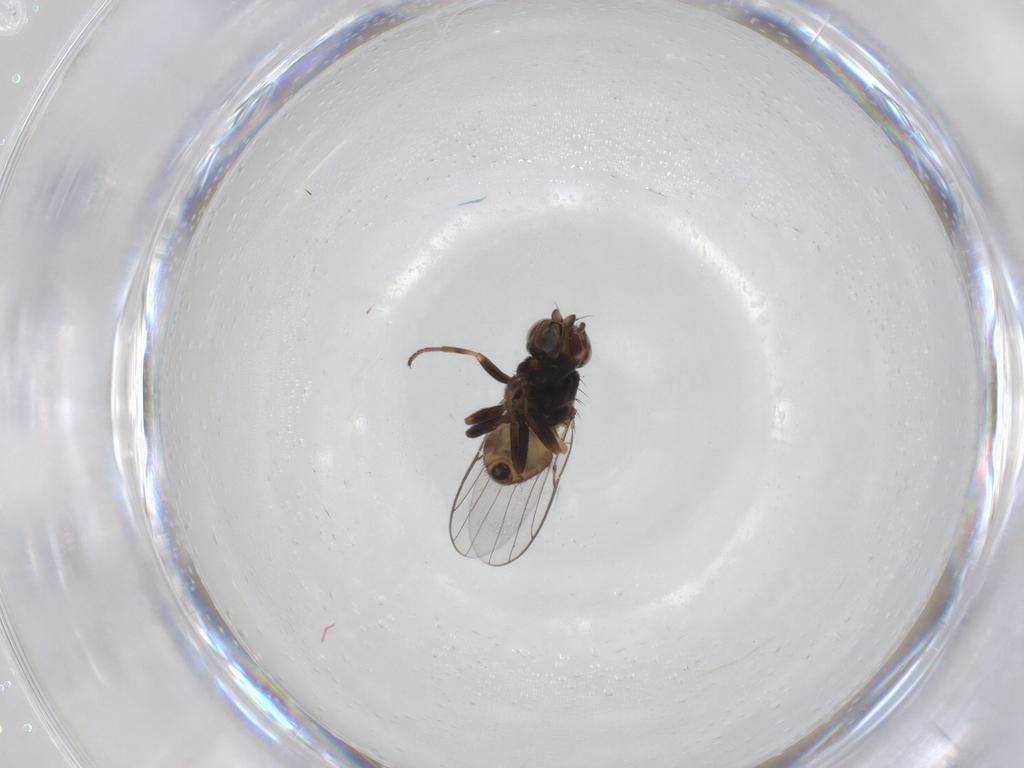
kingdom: Animalia
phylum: Arthropoda
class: Insecta
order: Diptera
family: Chloropidae
